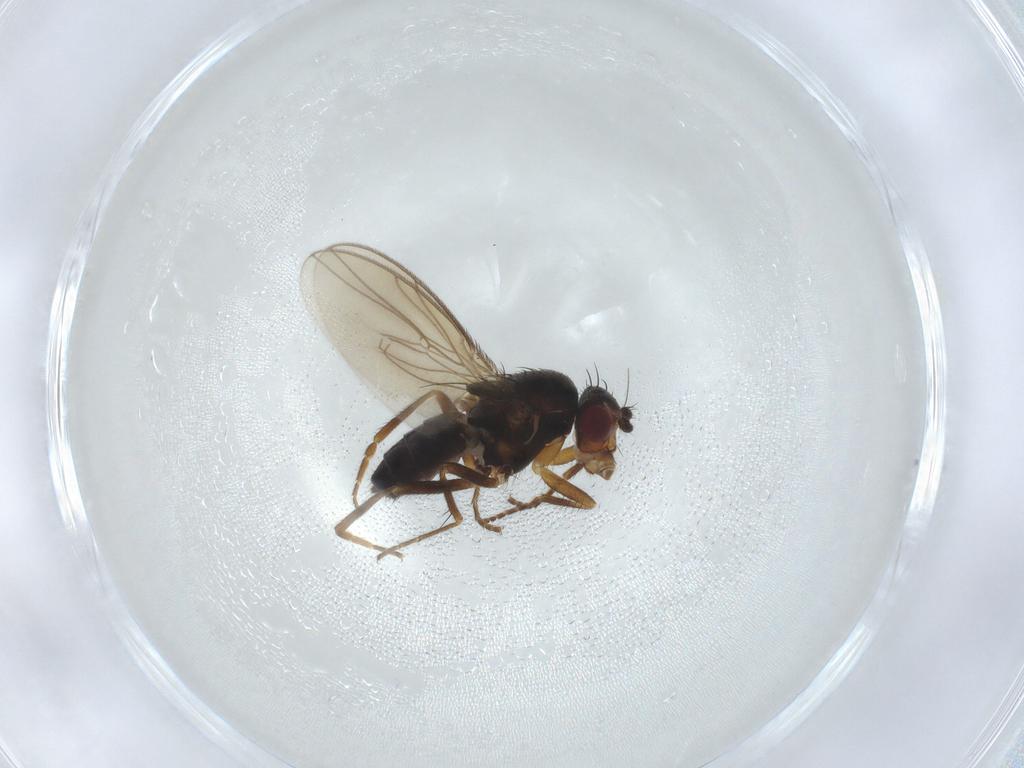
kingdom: Animalia
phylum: Arthropoda
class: Insecta
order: Diptera
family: Sphaeroceridae
